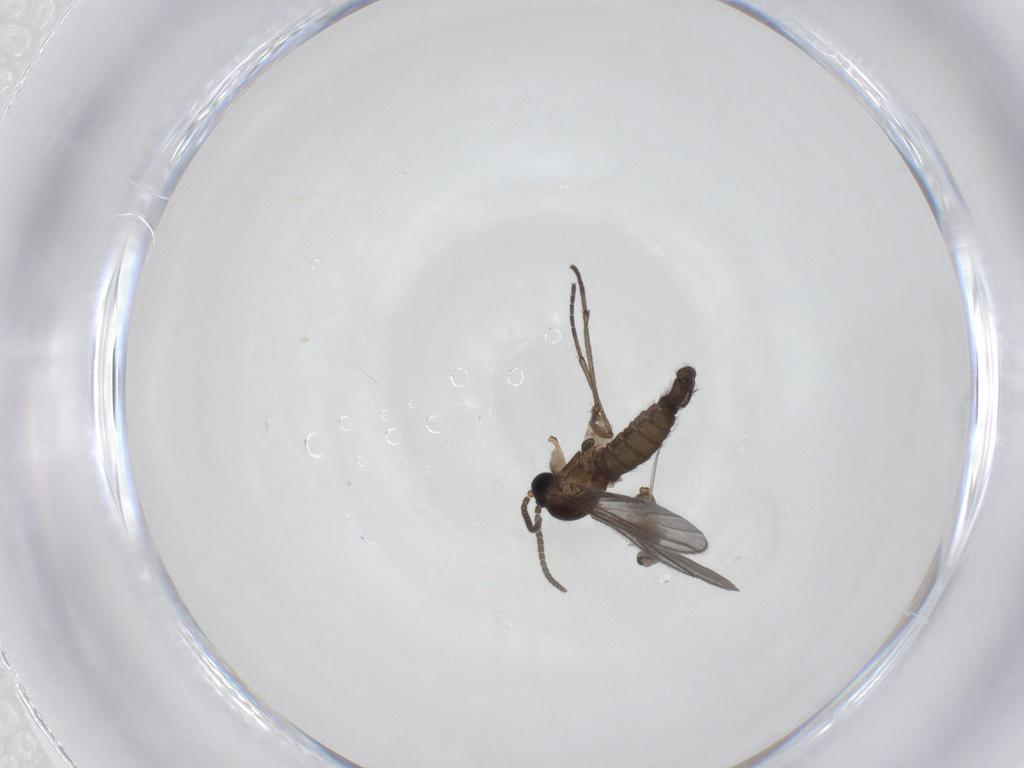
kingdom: Animalia
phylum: Arthropoda
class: Insecta
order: Diptera
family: Sciaridae
